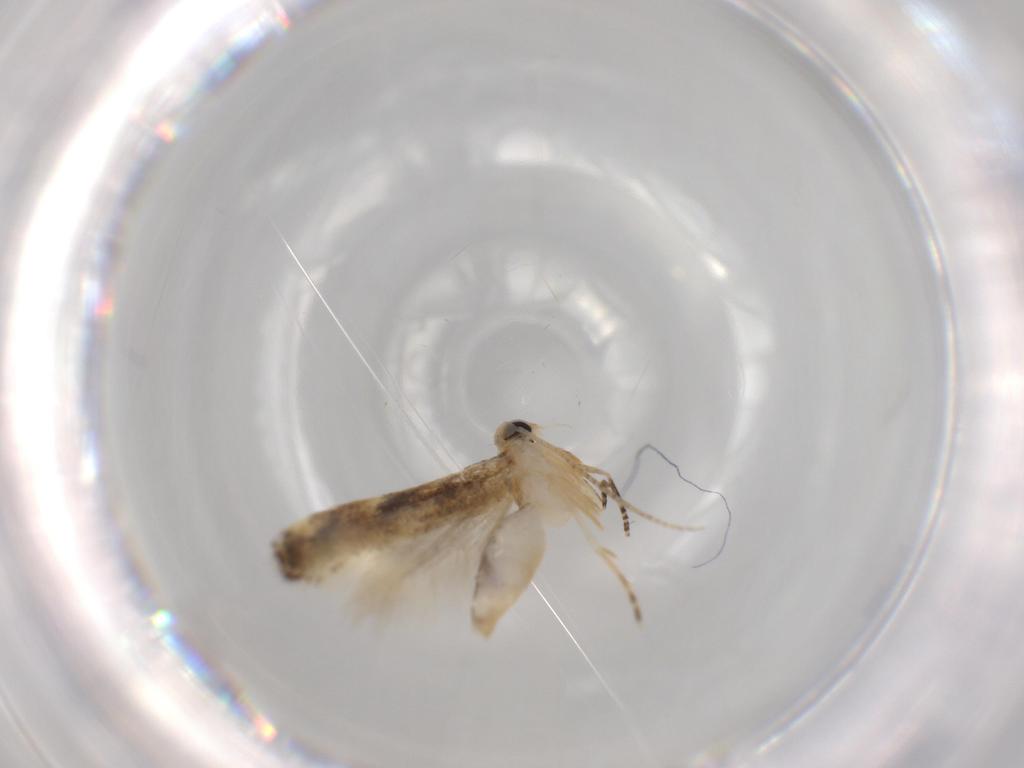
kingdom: Animalia
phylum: Arthropoda
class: Insecta
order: Lepidoptera
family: Bucculatricidae
